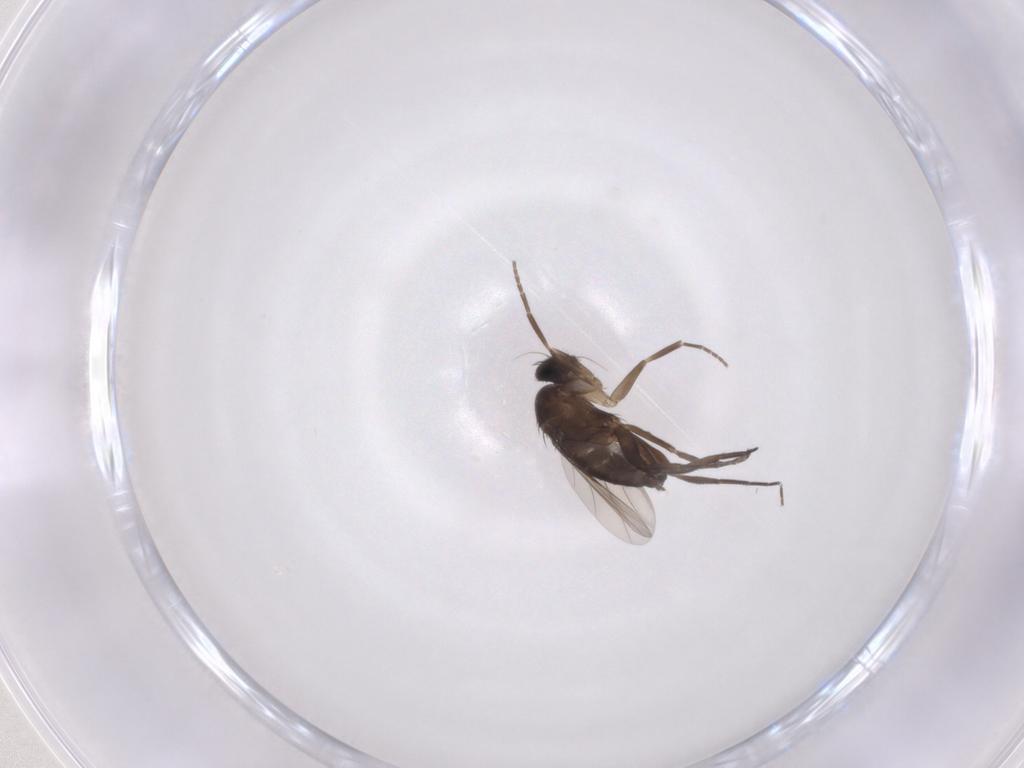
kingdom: Animalia
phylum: Arthropoda
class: Insecta
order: Diptera
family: Phoridae
